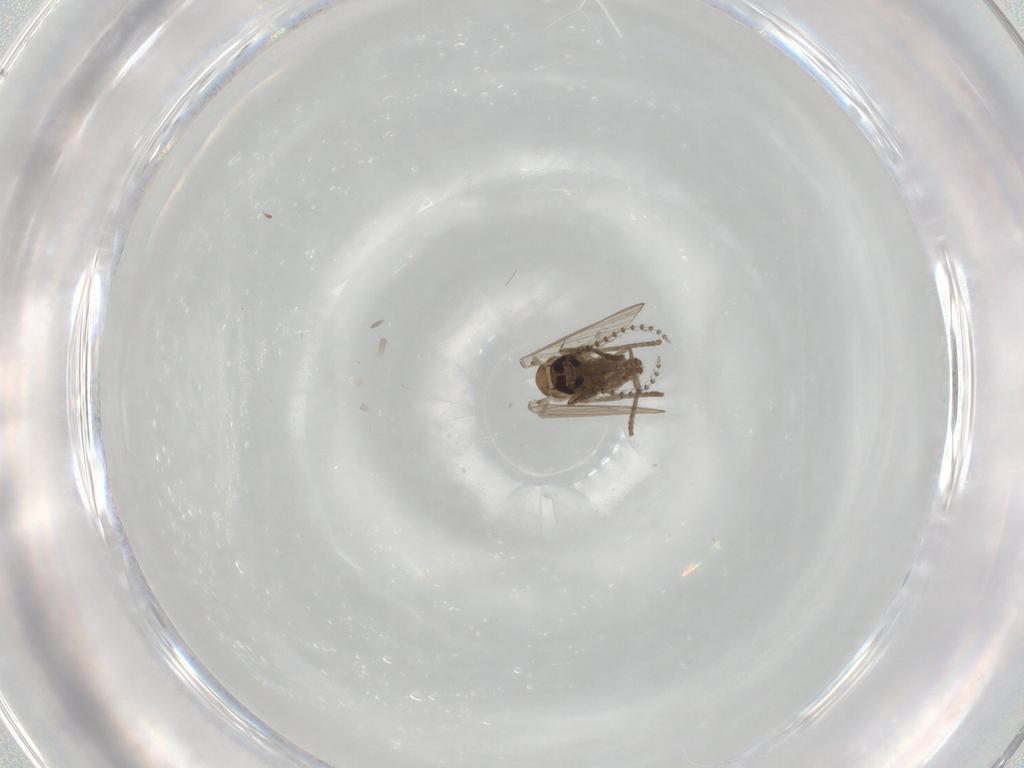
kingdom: Animalia
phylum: Arthropoda
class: Insecta
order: Diptera
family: Psychodidae
